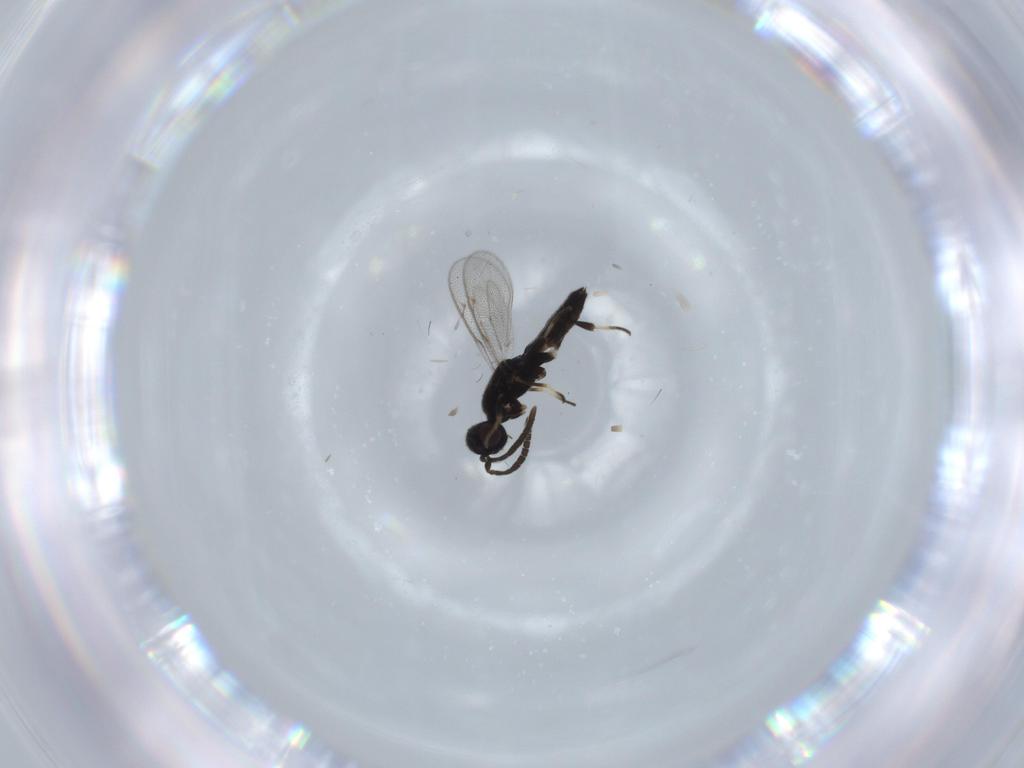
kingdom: Animalia
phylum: Arthropoda
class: Insecta
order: Hymenoptera
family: Eupelmidae
